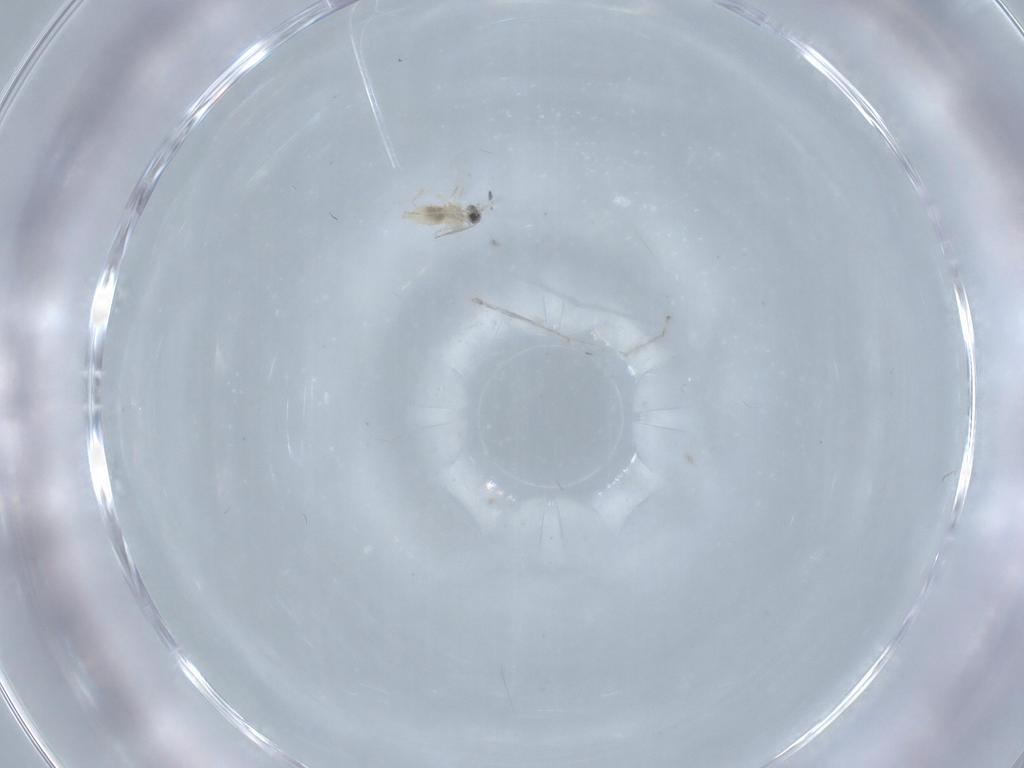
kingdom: Animalia
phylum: Arthropoda
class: Insecta
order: Diptera
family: Cecidomyiidae
